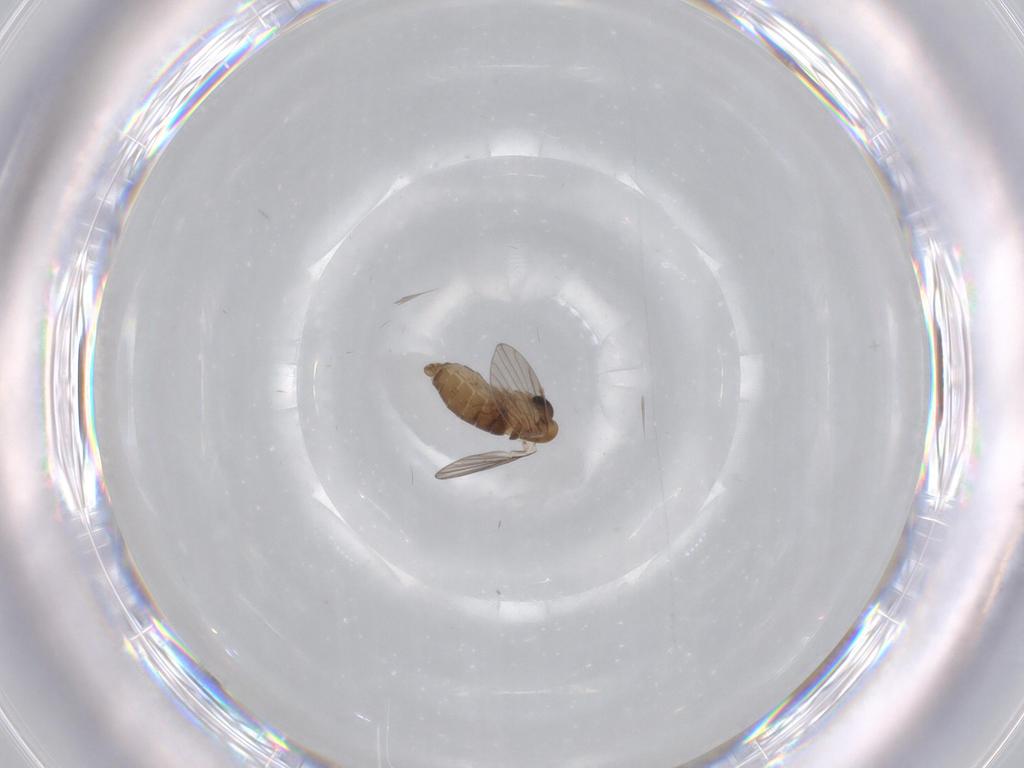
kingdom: Animalia
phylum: Arthropoda
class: Insecta
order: Diptera
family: Psychodidae
